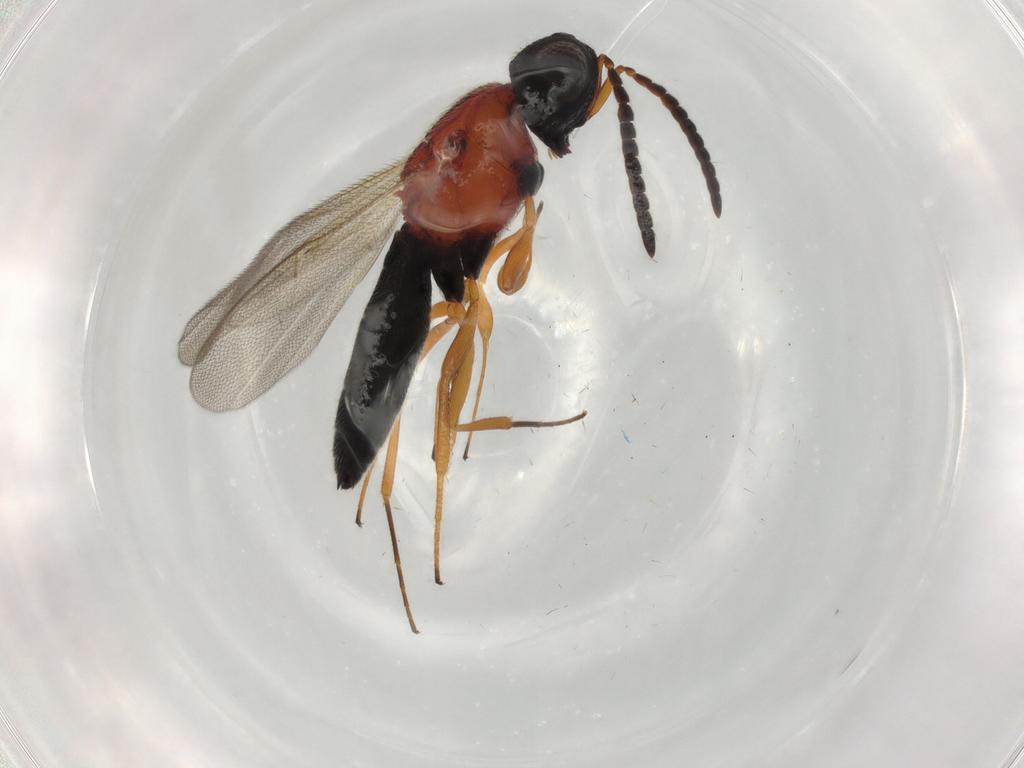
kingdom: Animalia
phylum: Arthropoda
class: Insecta
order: Hymenoptera
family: Scelionidae
